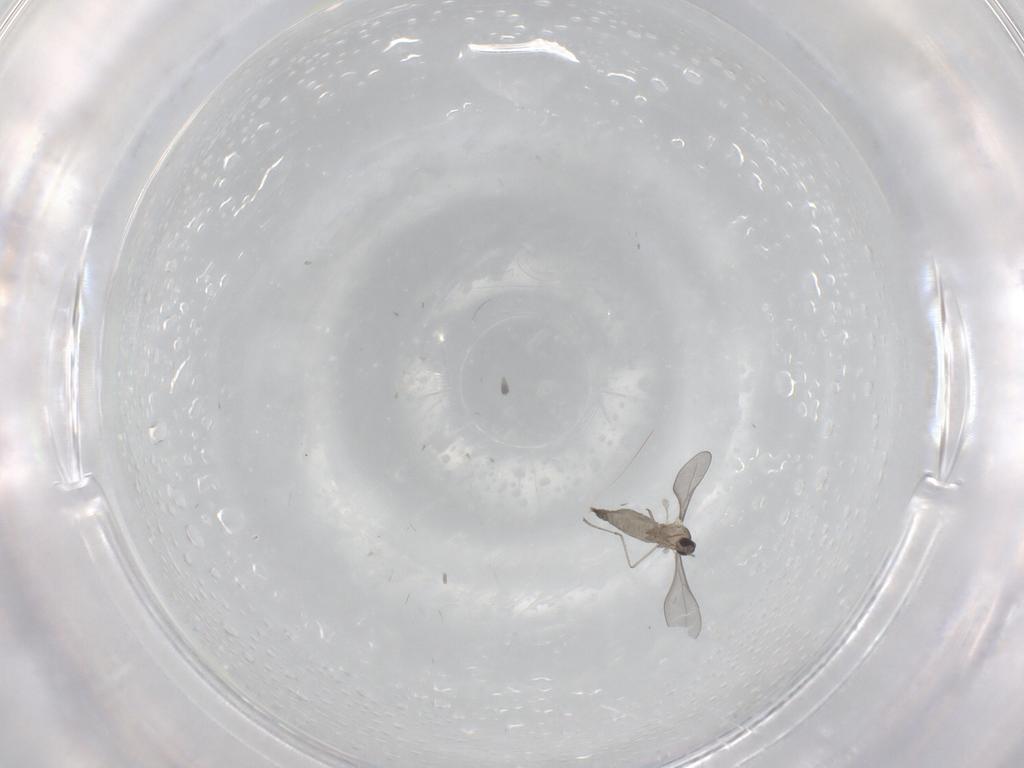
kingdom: Animalia
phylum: Arthropoda
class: Insecta
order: Diptera
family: Cecidomyiidae
